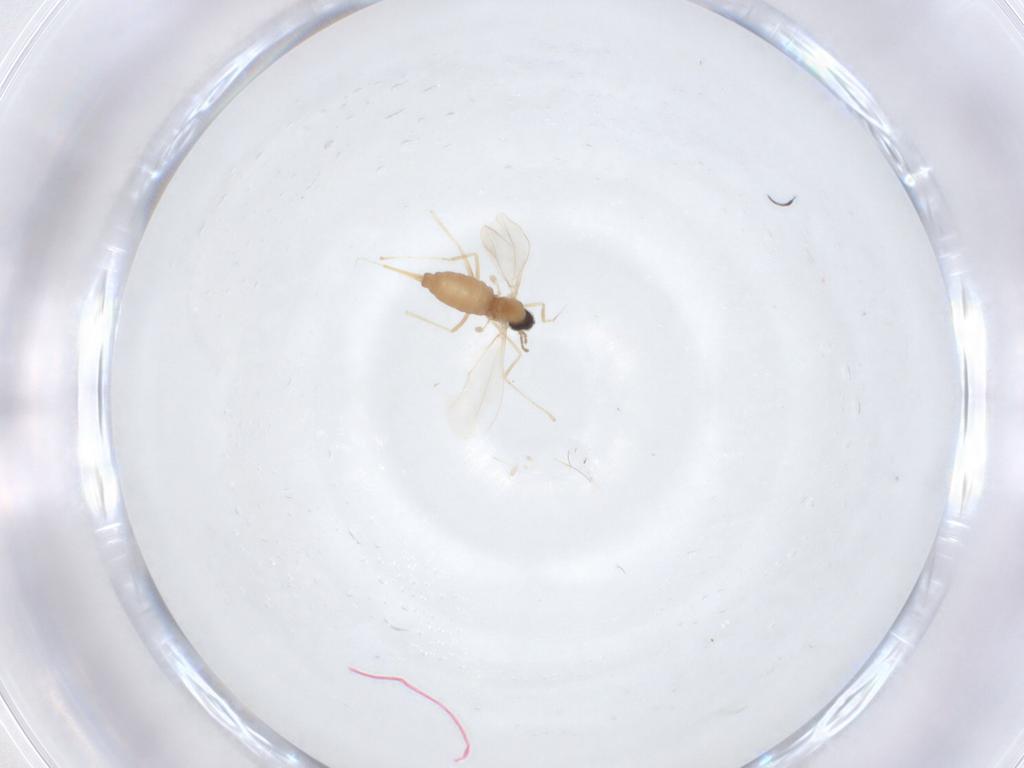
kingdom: Animalia
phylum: Arthropoda
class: Insecta
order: Diptera
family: Cecidomyiidae
